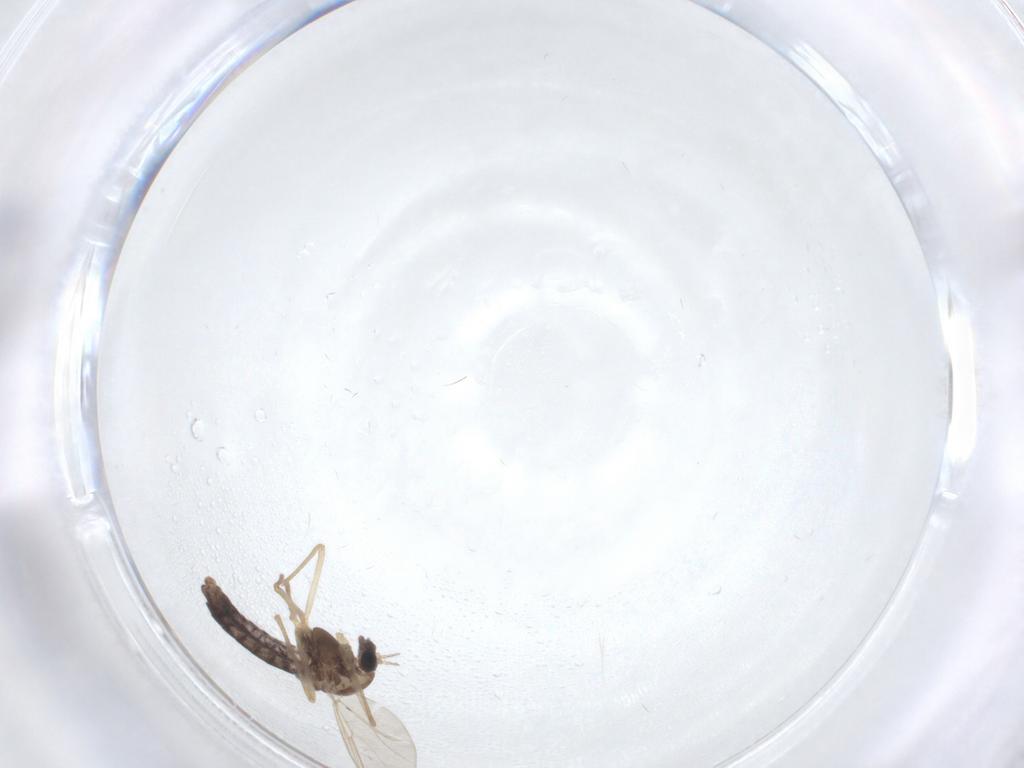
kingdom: Animalia
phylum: Arthropoda
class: Insecta
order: Diptera
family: Chironomidae
